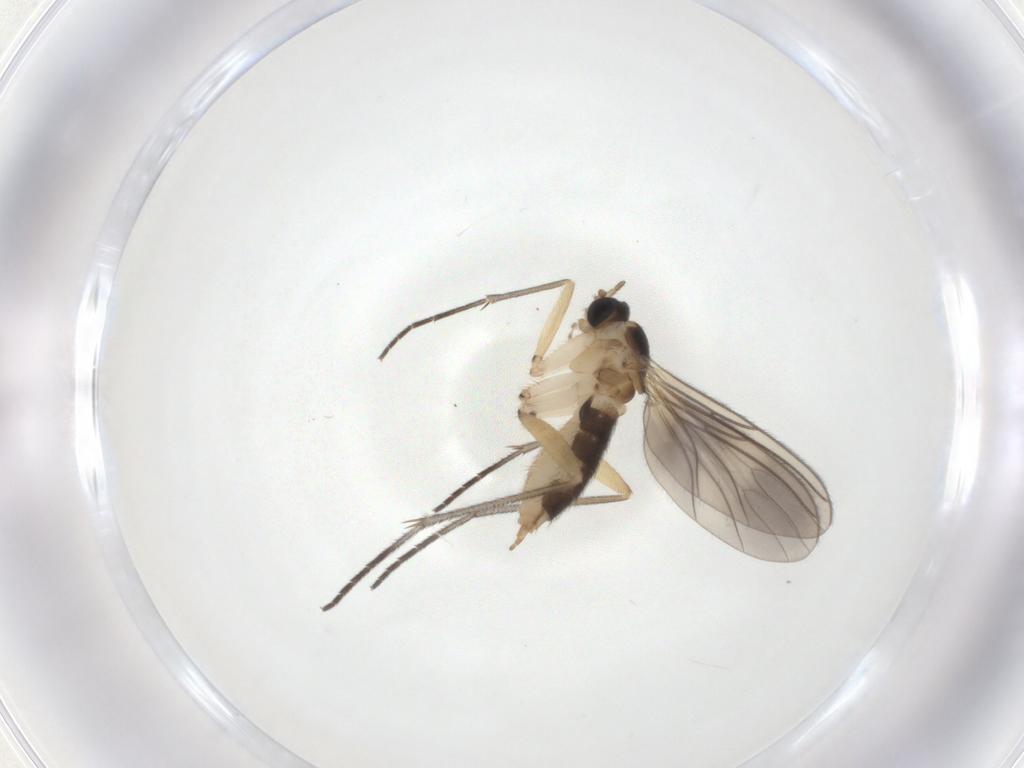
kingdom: Animalia
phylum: Arthropoda
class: Insecta
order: Diptera
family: Sciaridae
